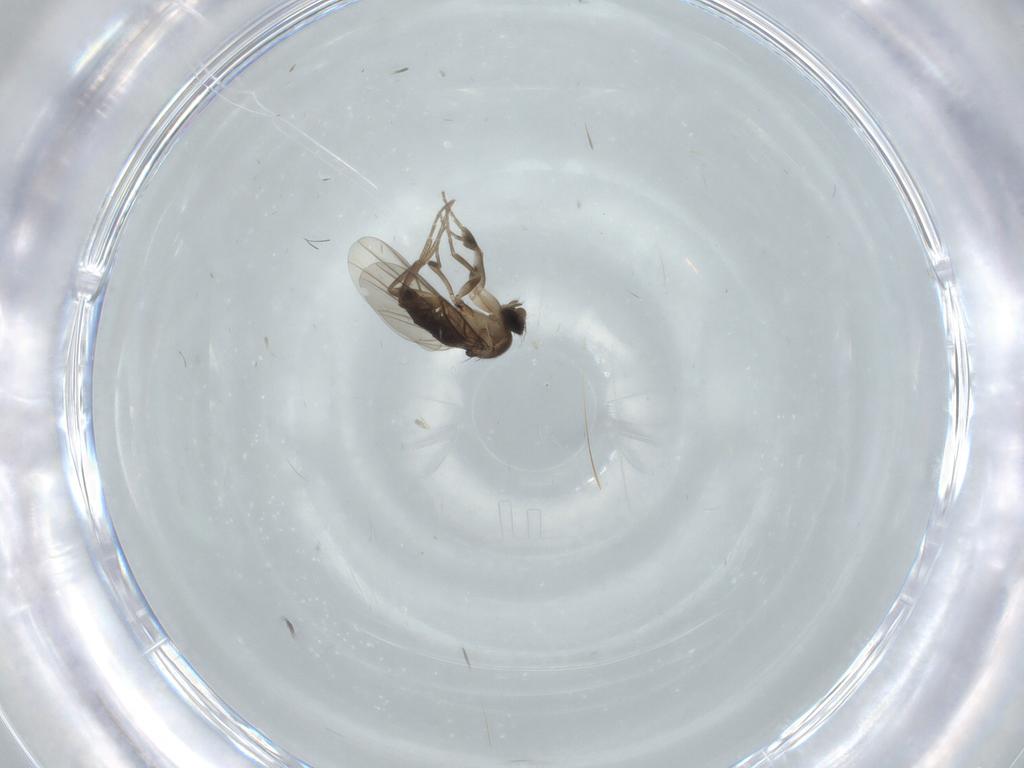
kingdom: Animalia
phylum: Arthropoda
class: Insecta
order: Diptera
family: Phoridae
